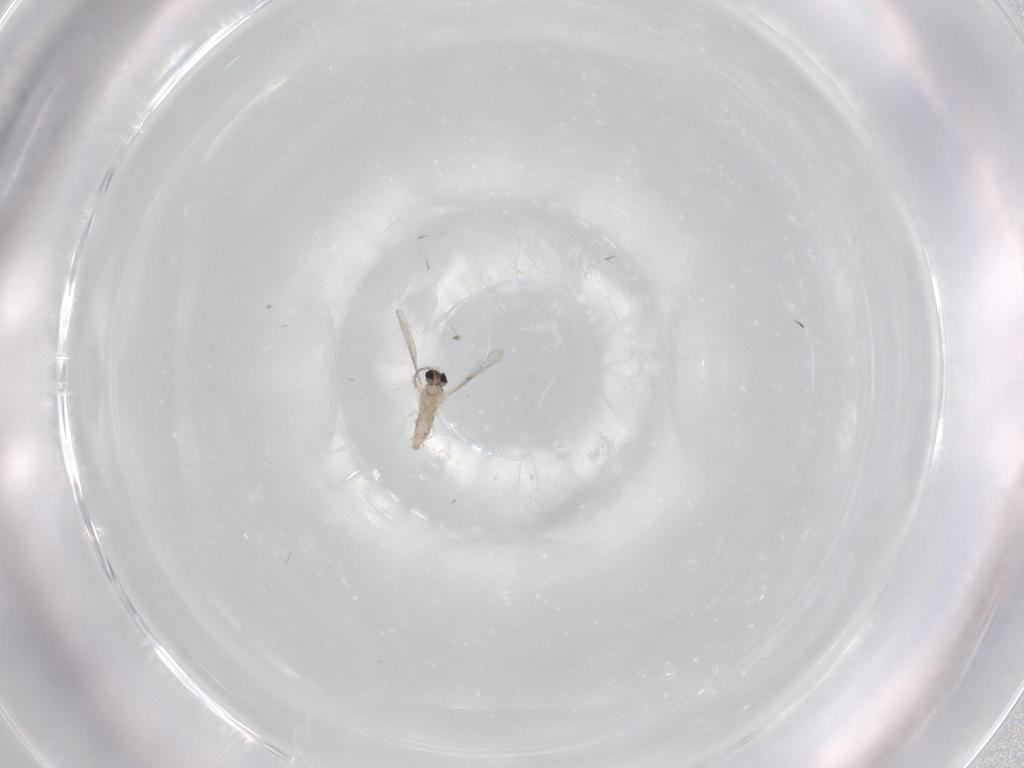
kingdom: Animalia
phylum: Arthropoda
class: Insecta
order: Diptera
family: Cecidomyiidae
